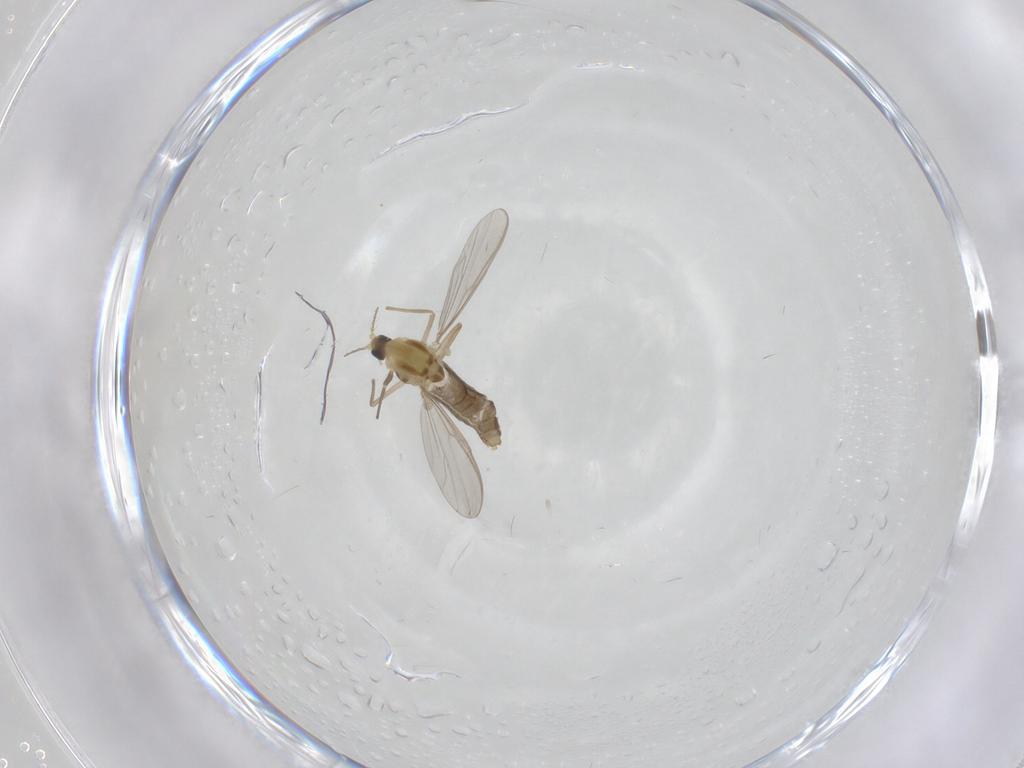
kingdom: Animalia
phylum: Arthropoda
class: Insecta
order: Diptera
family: Chironomidae
